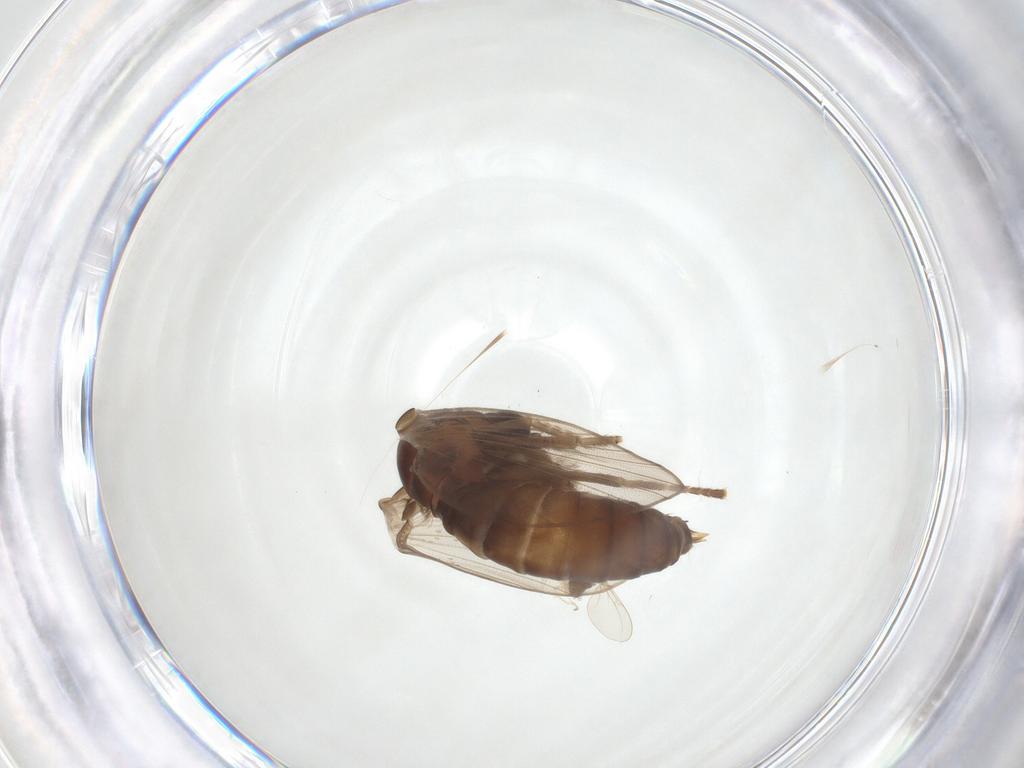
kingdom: Animalia
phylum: Arthropoda
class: Insecta
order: Diptera
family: Psychodidae
